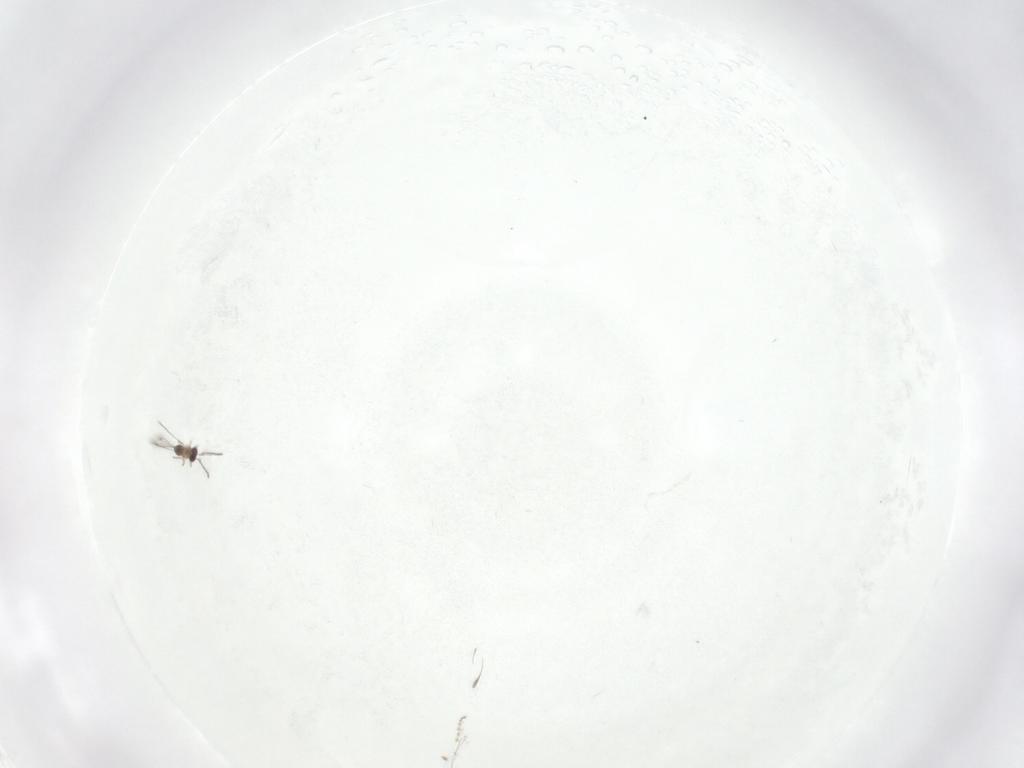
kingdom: Animalia
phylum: Arthropoda
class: Insecta
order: Hymenoptera
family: Mymaridae
